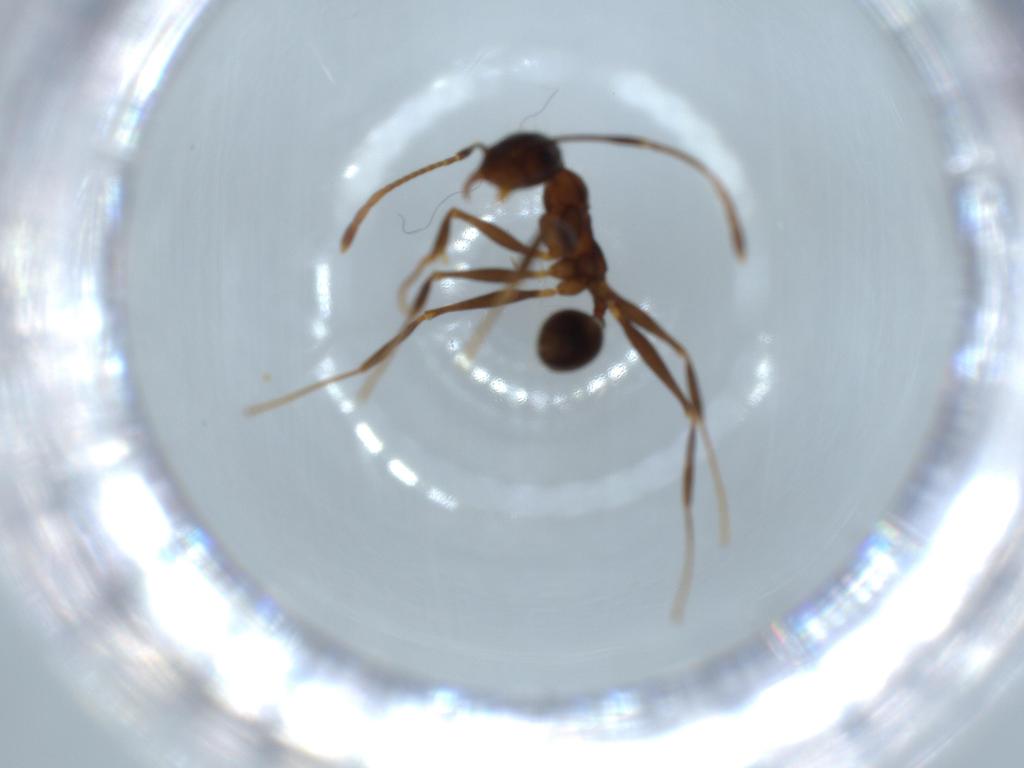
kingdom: Animalia
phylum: Arthropoda
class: Insecta
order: Hymenoptera
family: Formicidae
